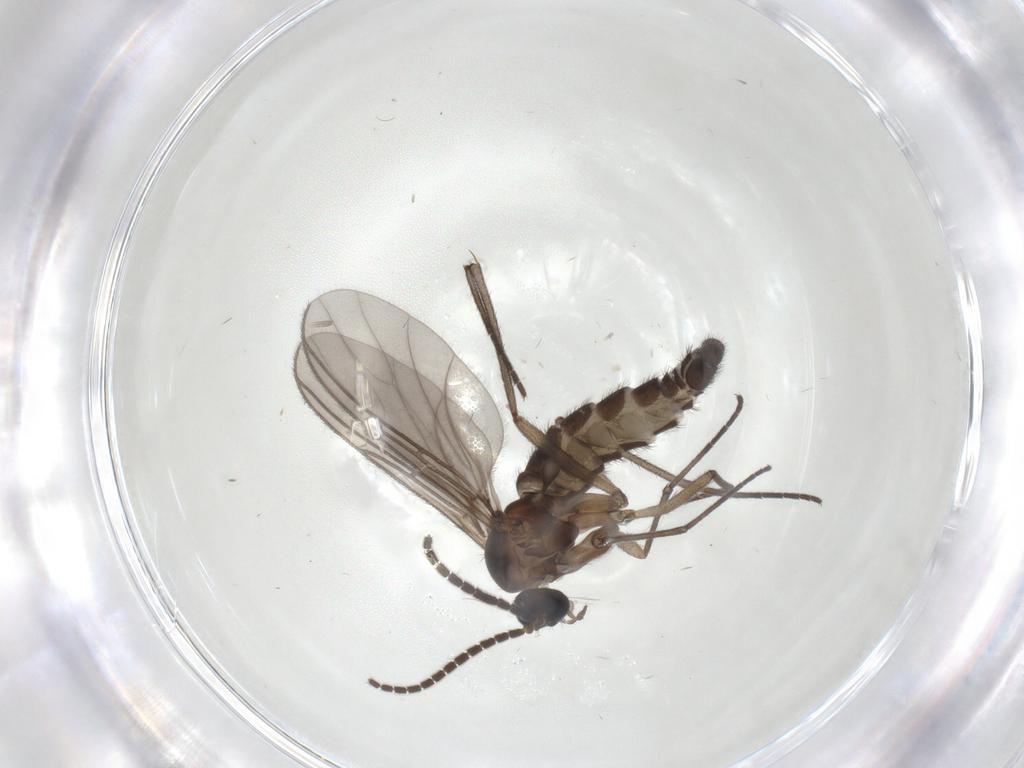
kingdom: Animalia
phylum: Arthropoda
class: Insecta
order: Diptera
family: Sciaridae
